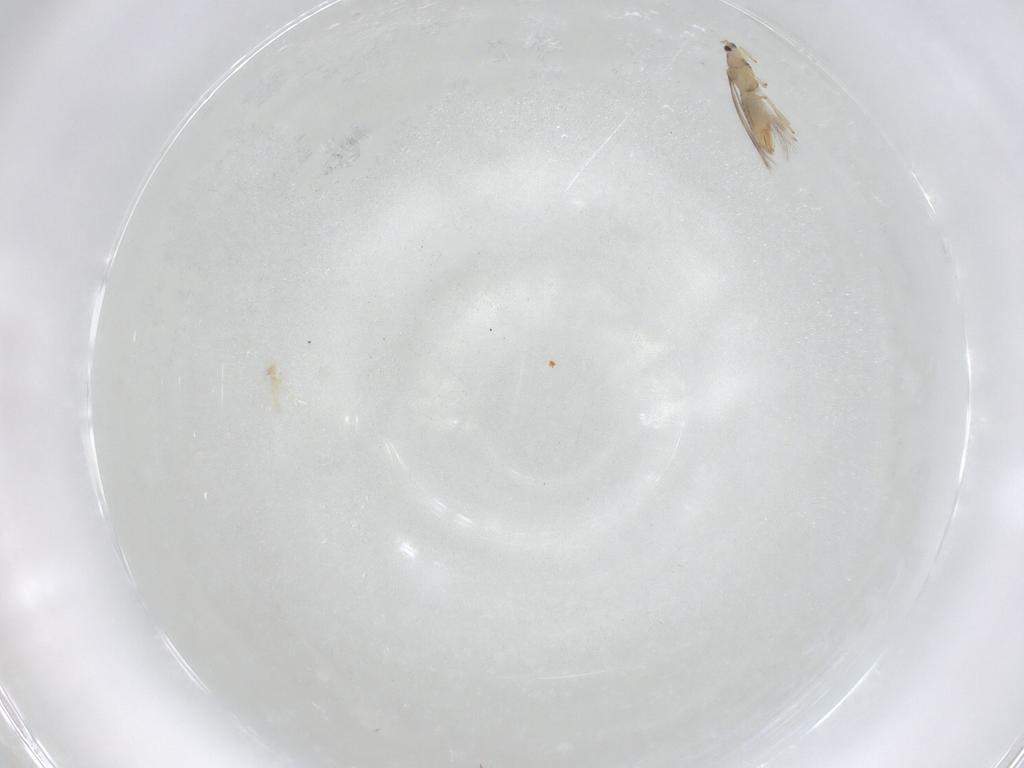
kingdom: Animalia
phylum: Arthropoda
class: Insecta
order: Thysanoptera
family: Thripidae
